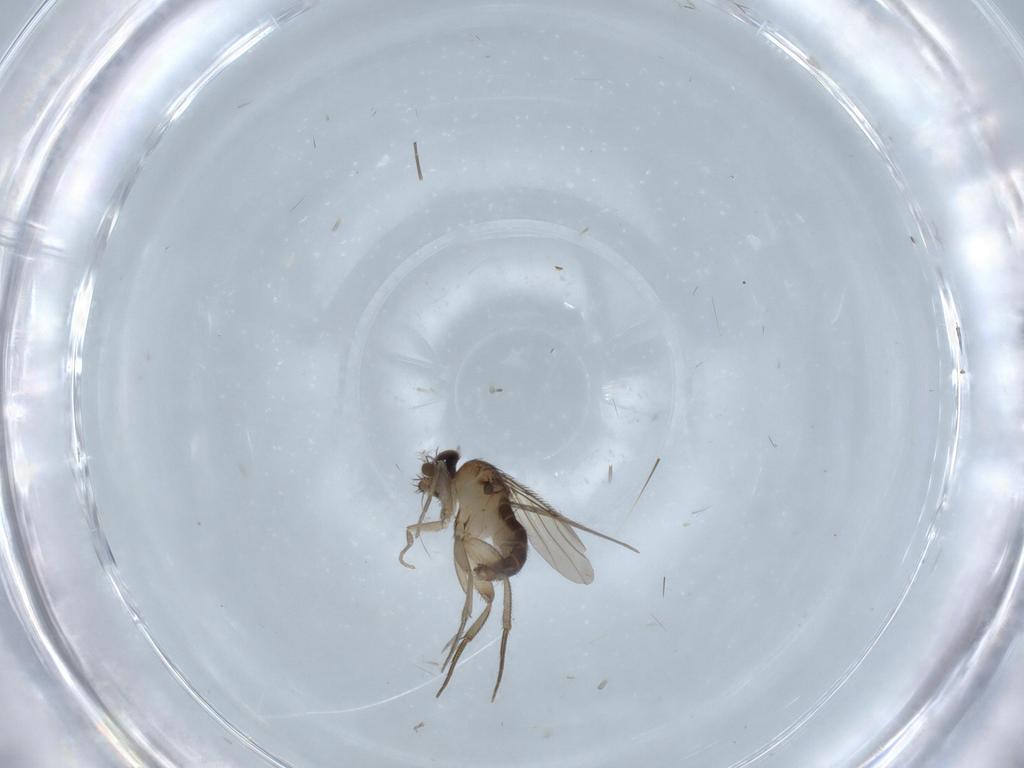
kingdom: Animalia
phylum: Arthropoda
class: Insecta
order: Diptera
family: Phoridae
